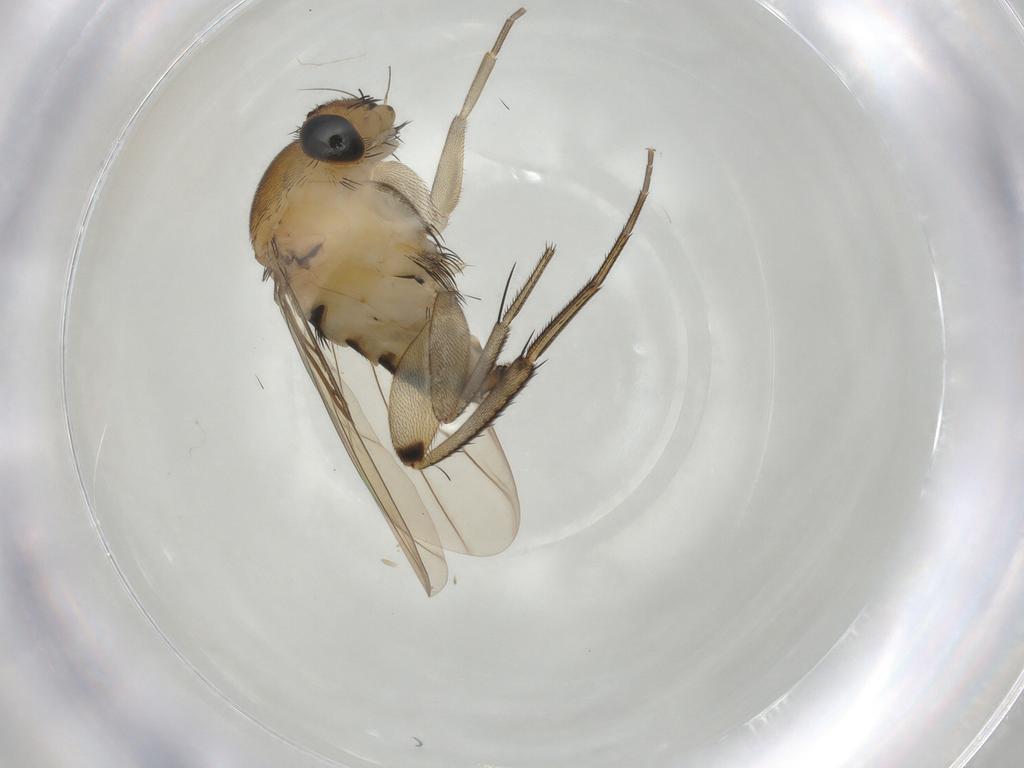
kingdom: Animalia
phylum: Arthropoda
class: Insecta
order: Diptera
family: Phoridae
